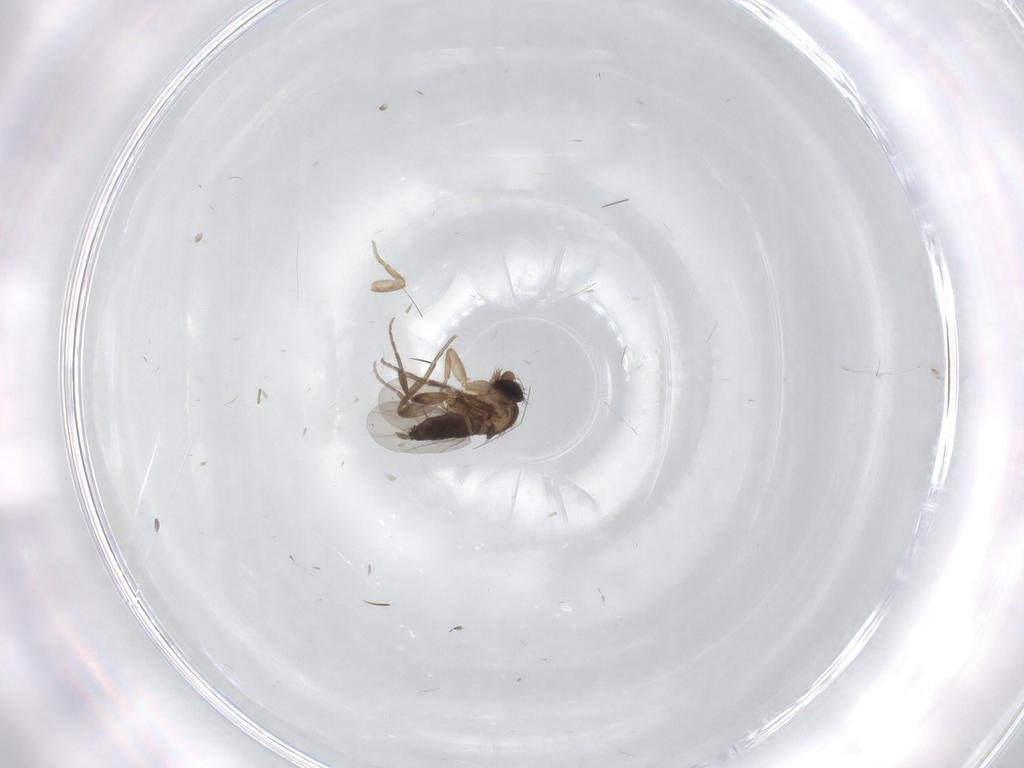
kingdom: Animalia
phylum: Arthropoda
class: Insecta
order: Diptera
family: Phoridae
